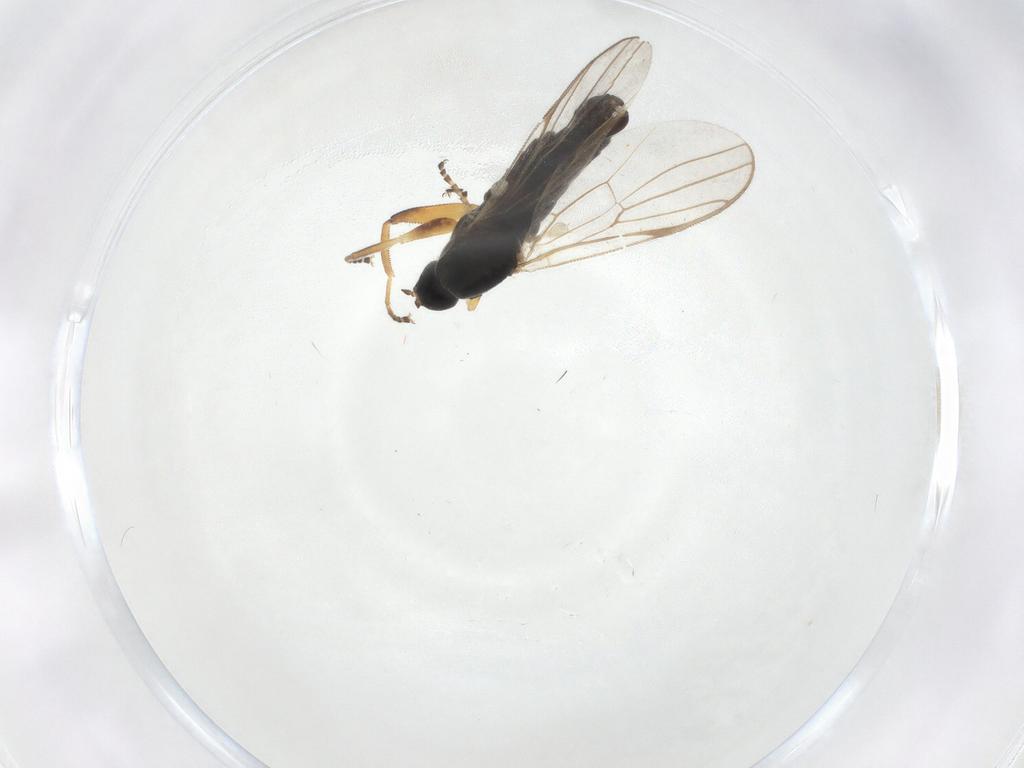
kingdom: Animalia
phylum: Arthropoda
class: Insecta
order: Diptera
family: Hybotidae
